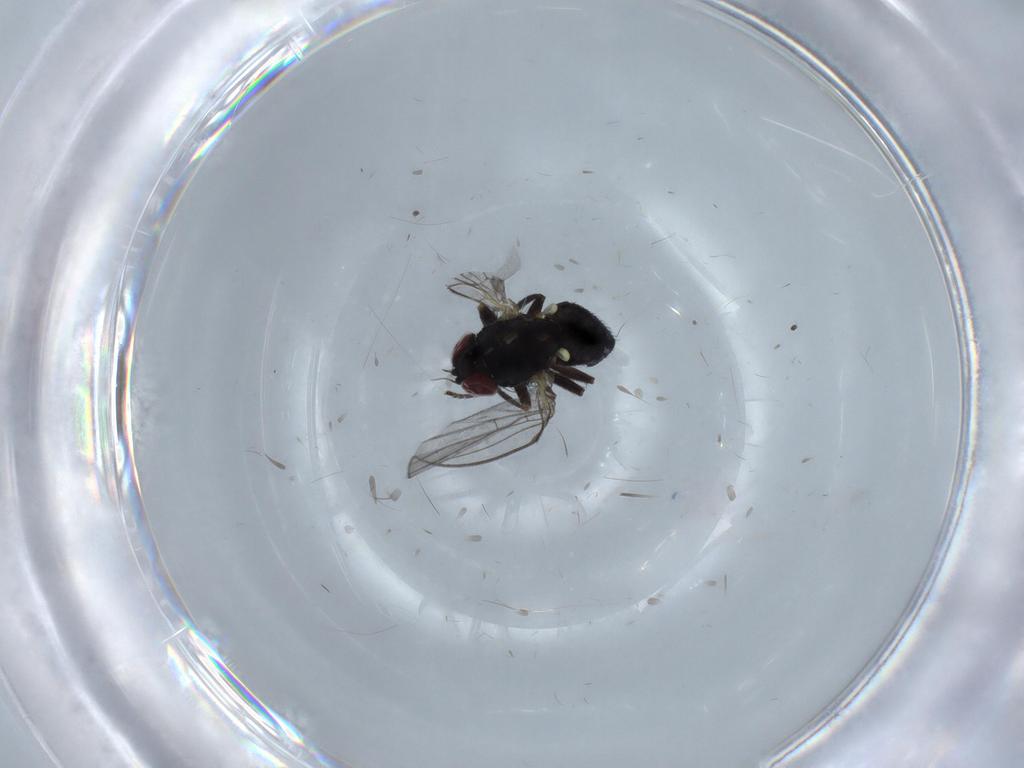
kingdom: Animalia
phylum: Arthropoda
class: Insecta
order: Diptera
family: Agromyzidae
